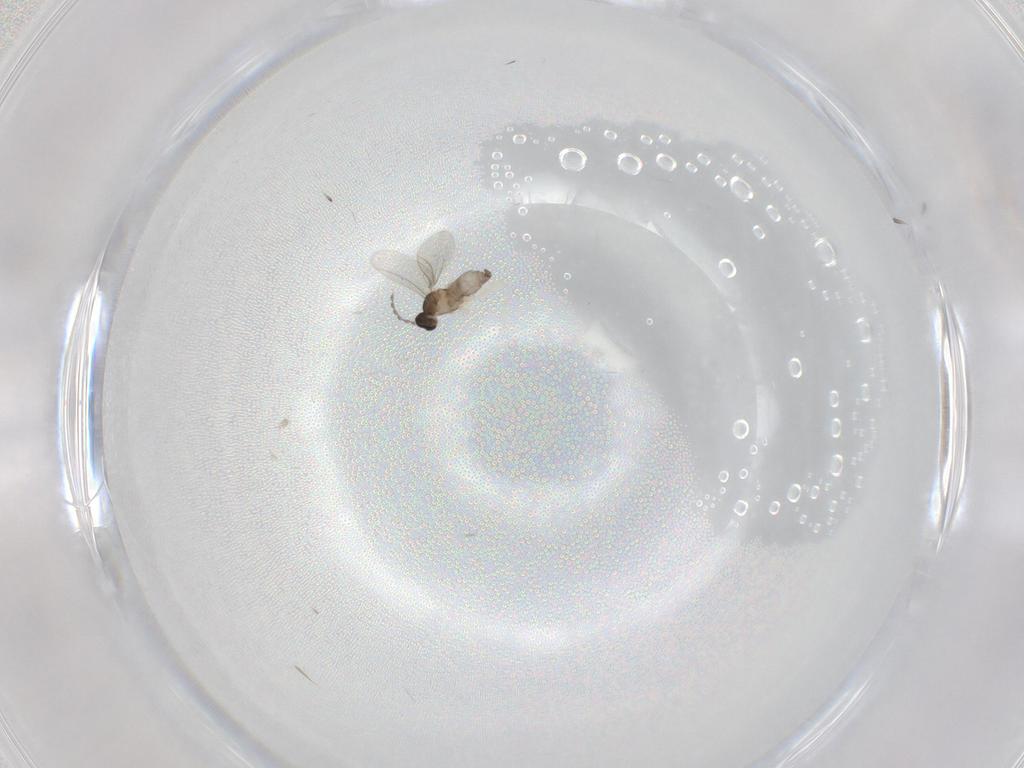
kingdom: Animalia
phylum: Arthropoda
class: Insecta
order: Diptera
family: Cecidomyiidae
